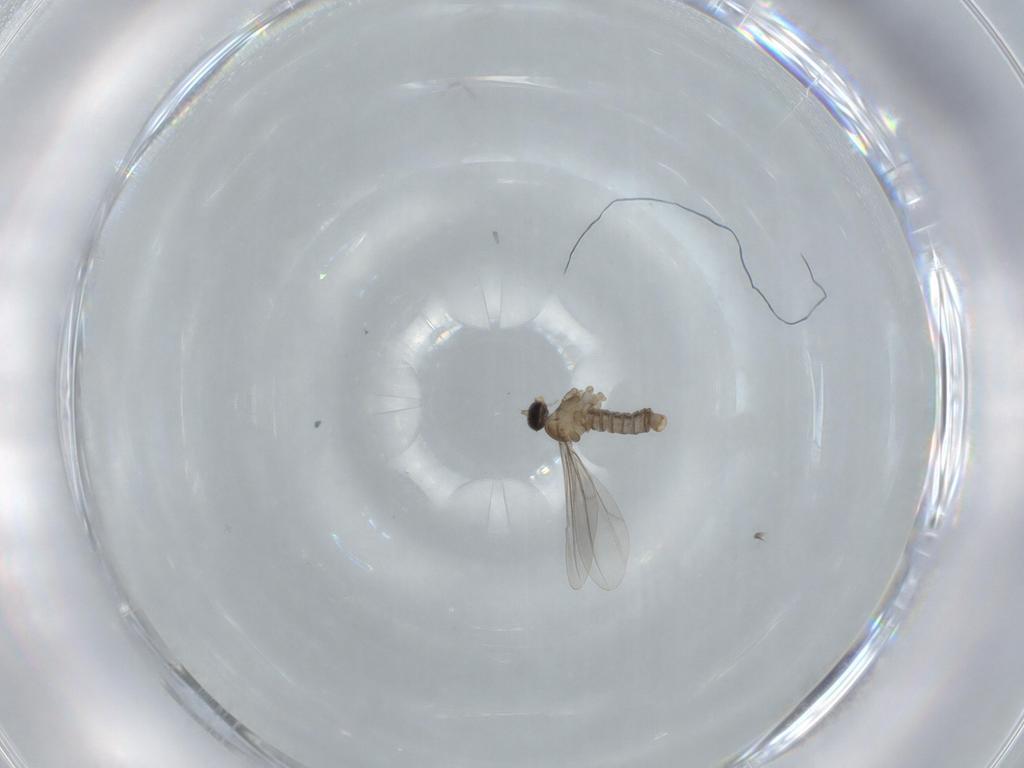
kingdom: Animalia
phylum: Arthropoda
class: Insecta
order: Diptera
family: Cecidomyiidae
